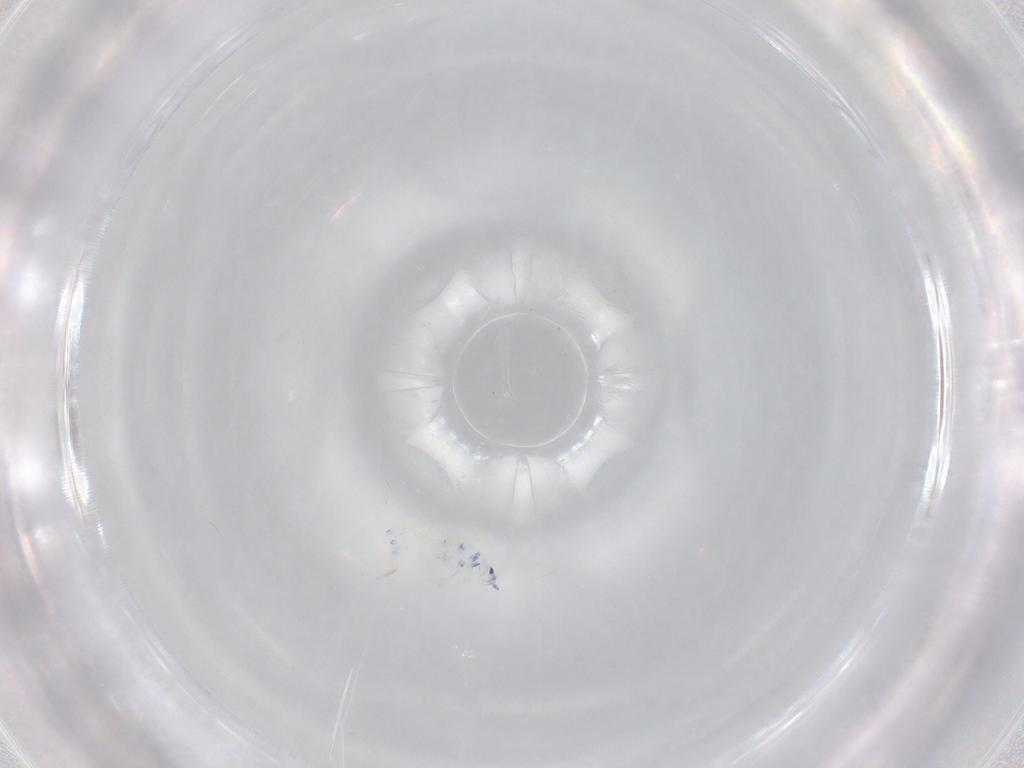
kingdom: Animalia
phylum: Arthropoda
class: Collembola
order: Entomobryomorpha
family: Entomobryidae
